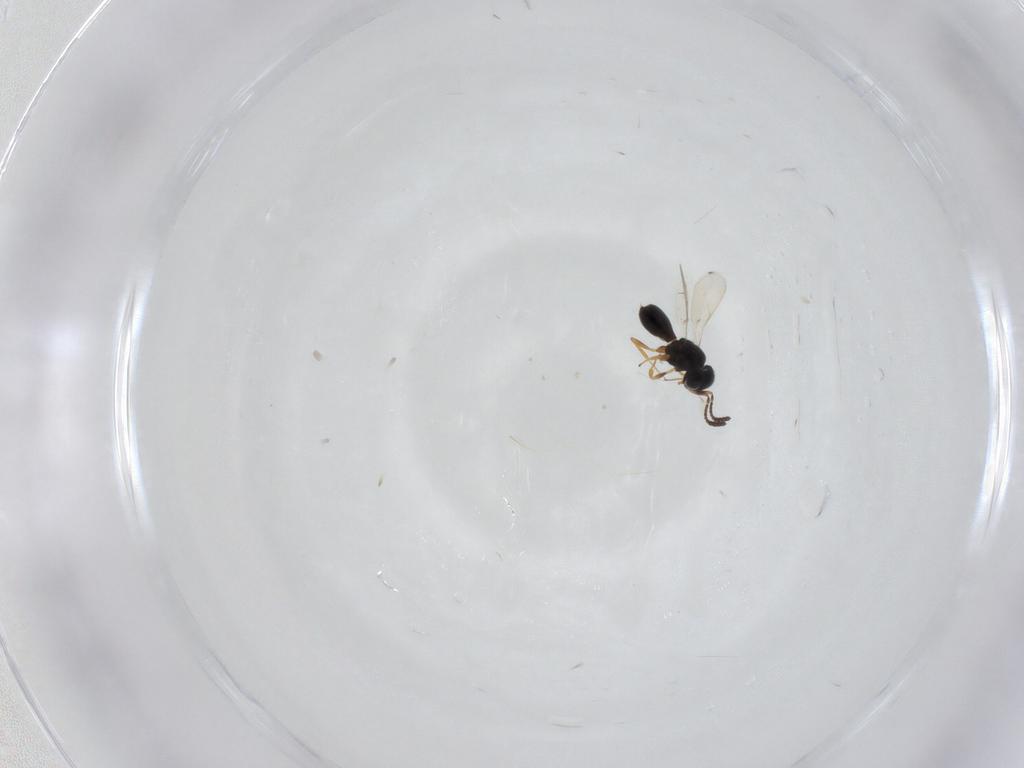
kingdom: Animalia
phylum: Arthropoda
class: Insecta
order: Hymenoptera
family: Scelionidae
